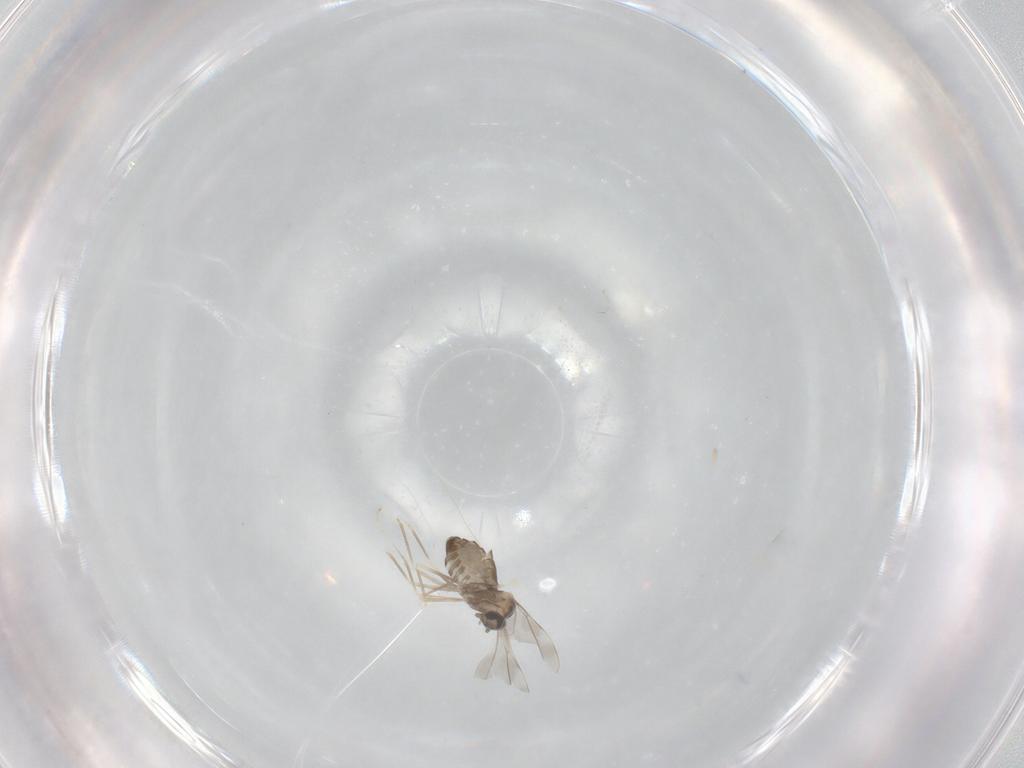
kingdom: Animalia
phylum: Arthropoda
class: Insecta
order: Diptera
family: Cecidomyiidae
